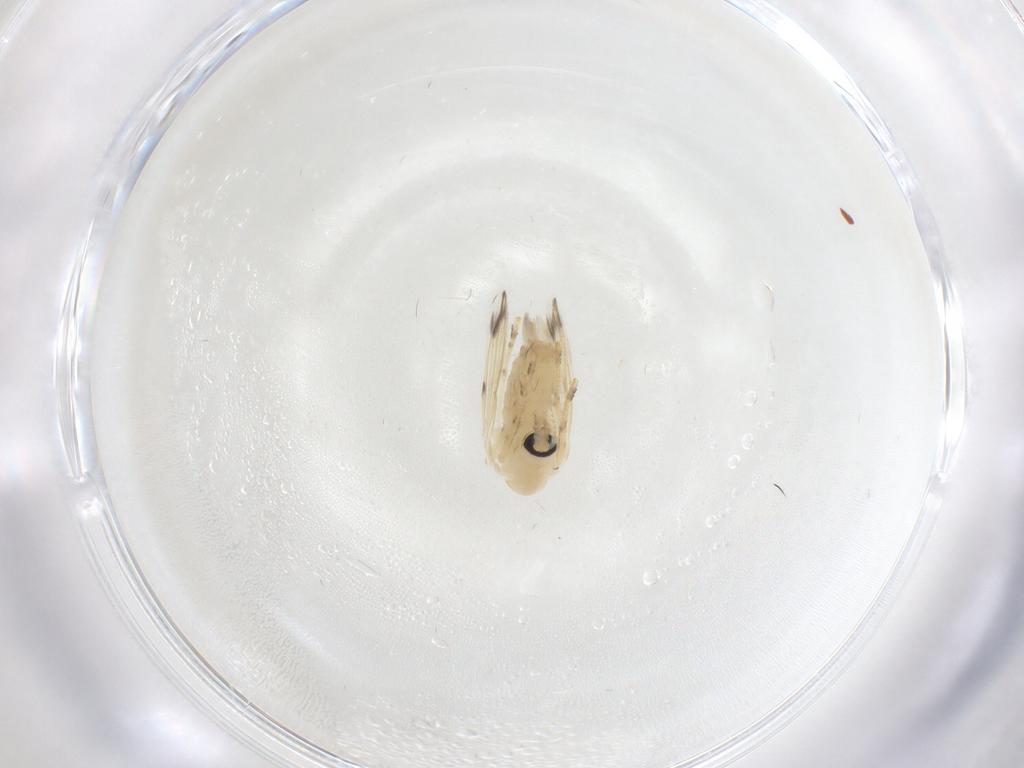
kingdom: Animalia
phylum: Arthropoda
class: Insecta
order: Diptera
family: Psychodidae
